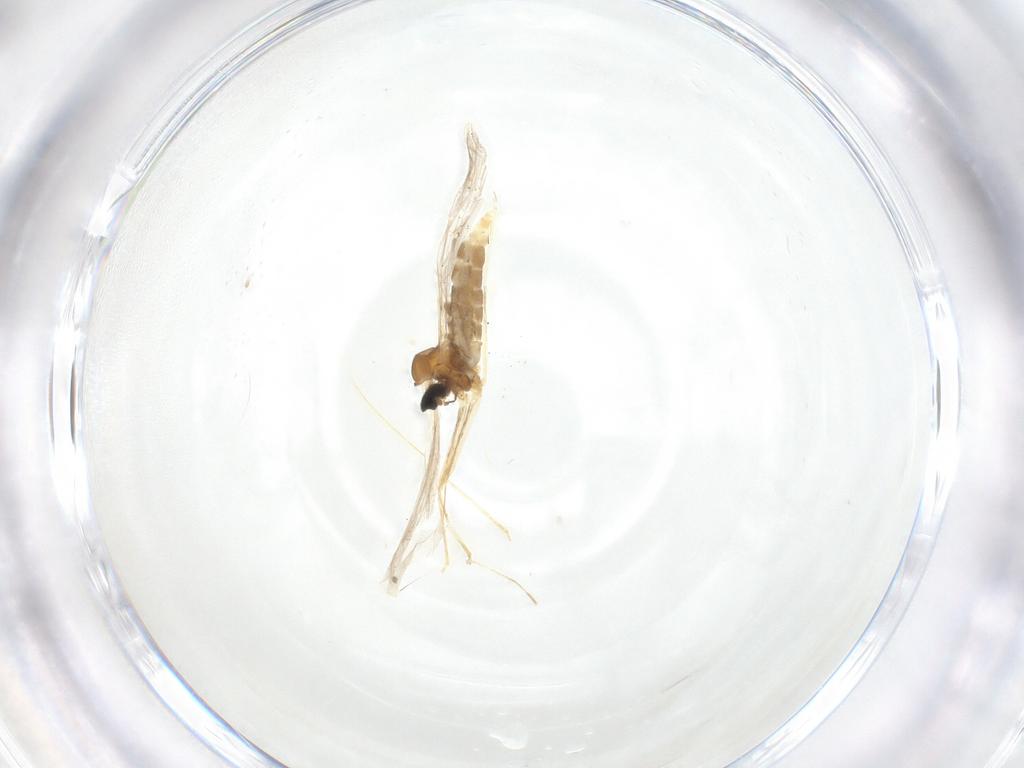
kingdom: Animalia
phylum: Arthropoda
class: Insecta
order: Diptera
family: Cecidomyiidae
